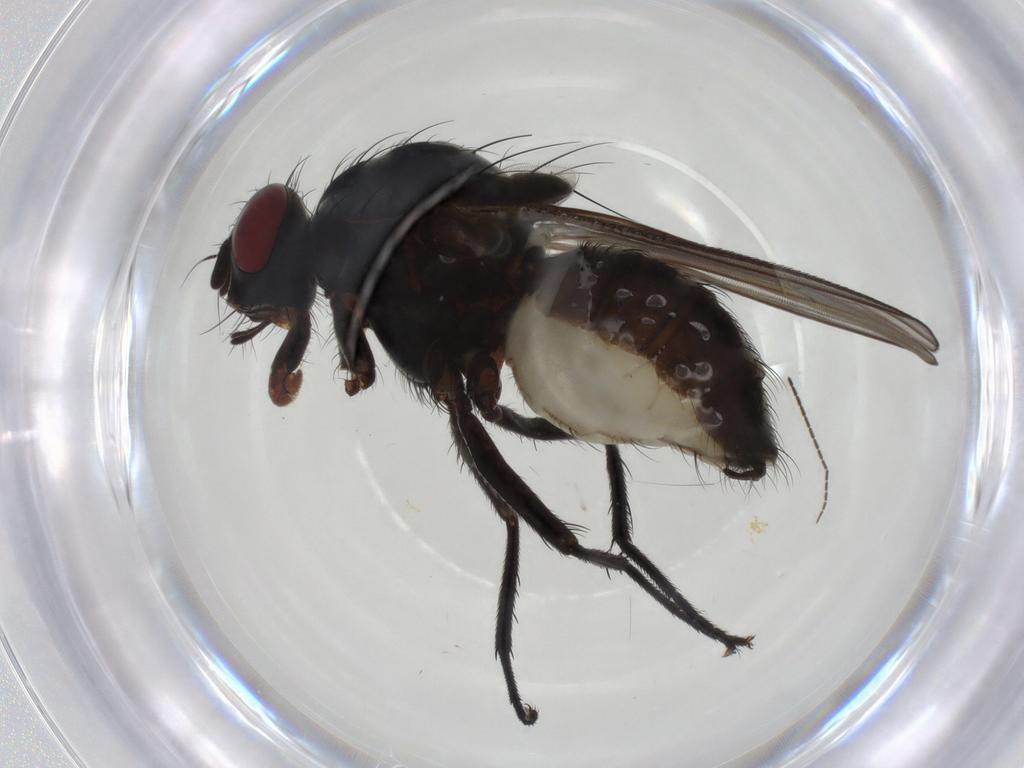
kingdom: Animalia
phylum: Arthropoda
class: Insecta
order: Diptera
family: Anthomyiidae
